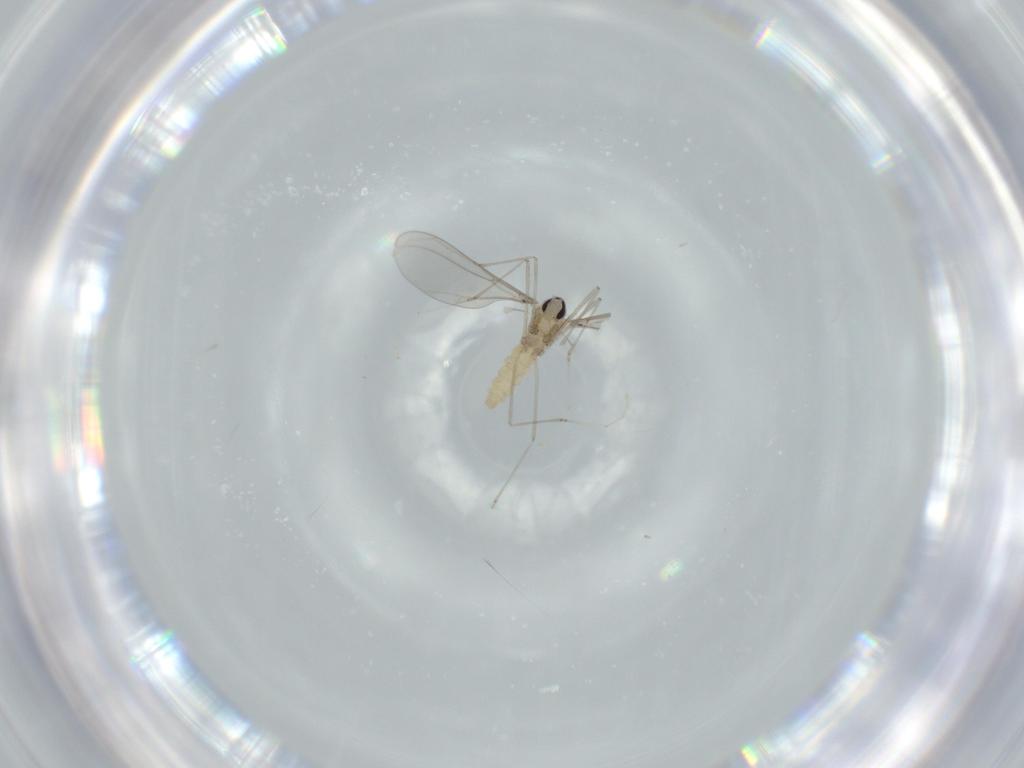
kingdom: Animalia
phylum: Arthropoda
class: Insecta
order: Diptera
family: Cecidomyiidae
